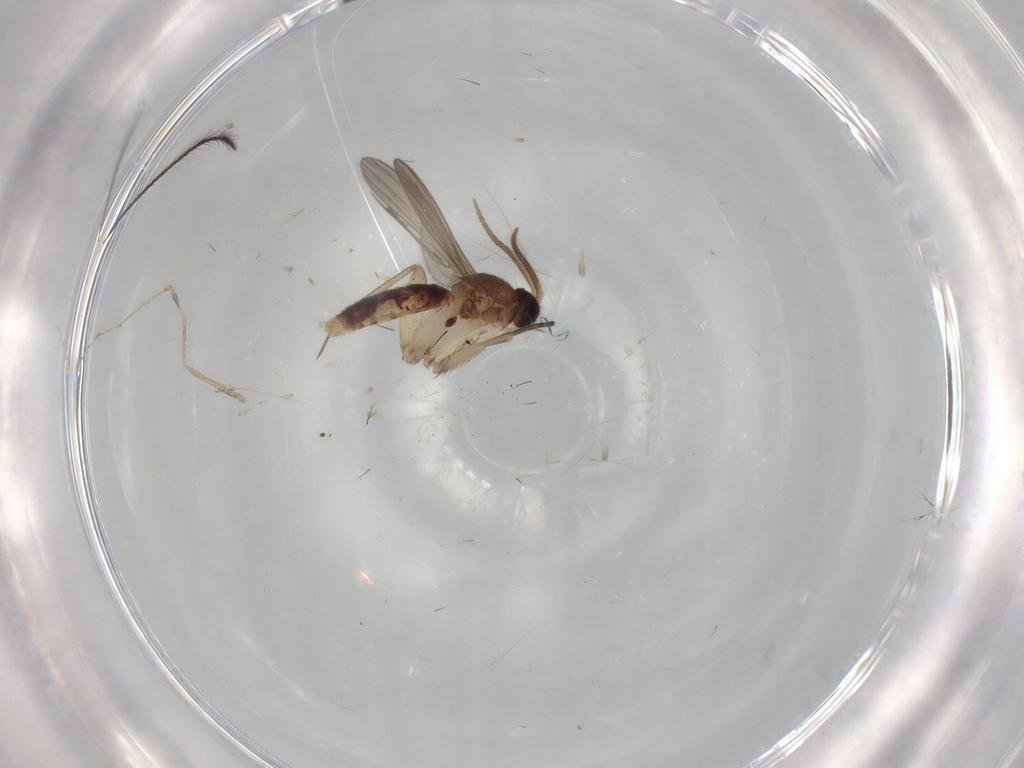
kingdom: Animalia
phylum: Arthropoda
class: Insecta
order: Diptera
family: Mycetophilidae
